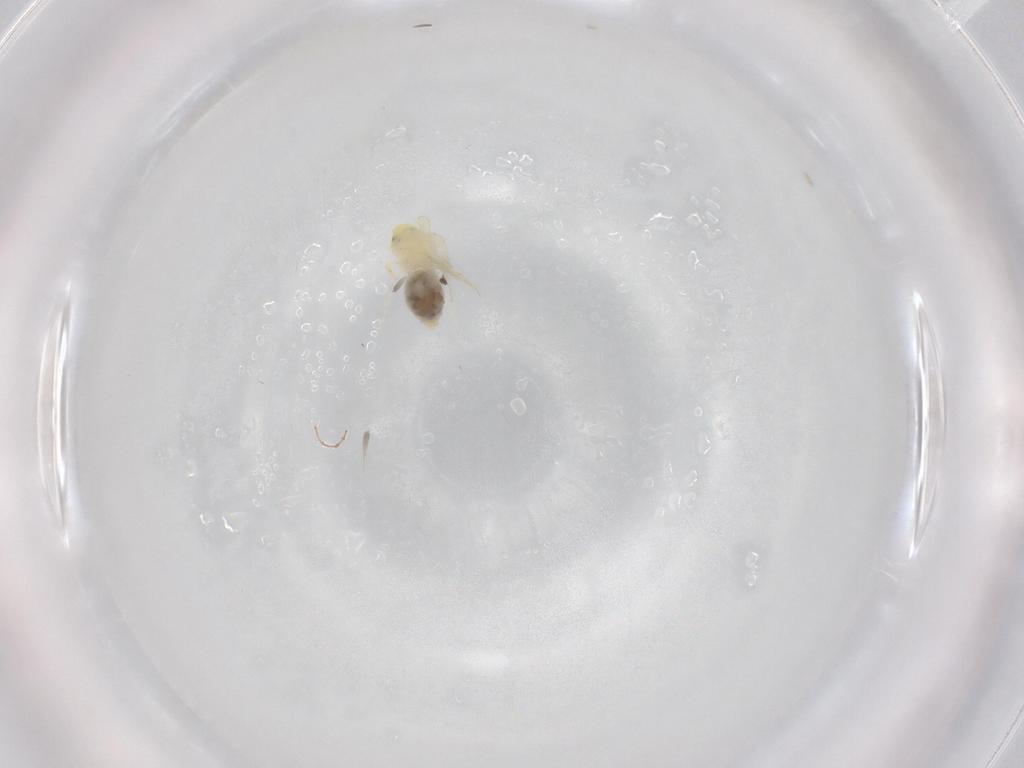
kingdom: Animalia
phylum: Arthropoda
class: Insecta
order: Hemiptera
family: Aleyrodidae
